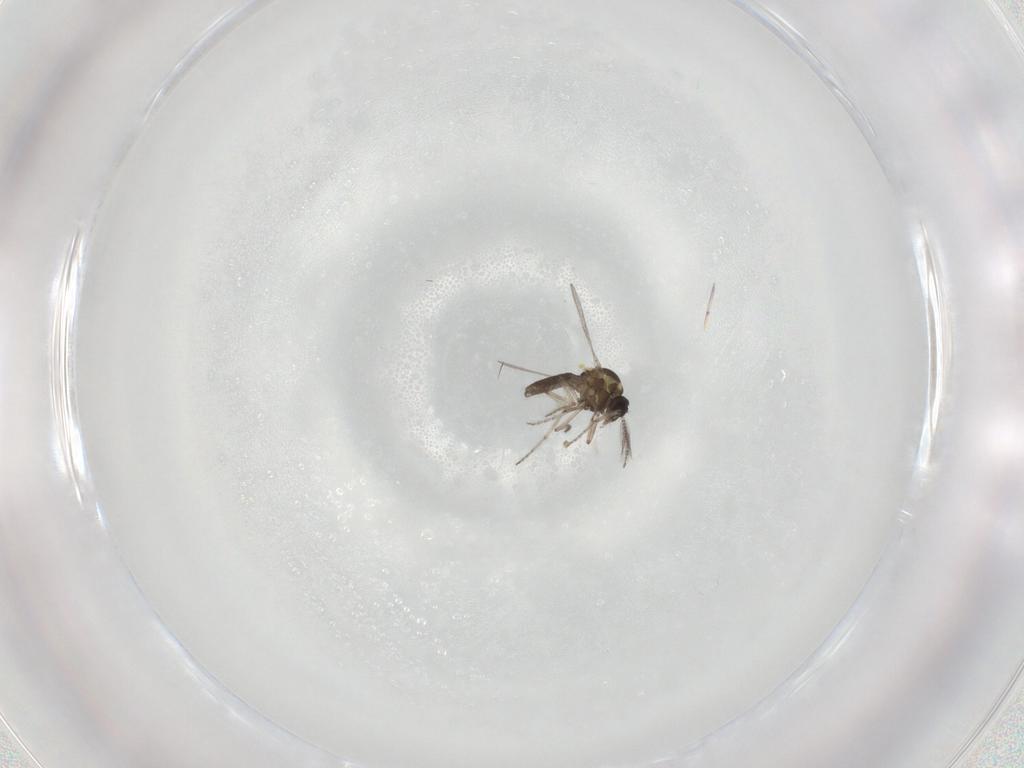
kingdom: Animalia
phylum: Arthropoda
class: Insecta
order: Diptera
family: Ceratopogonidae
